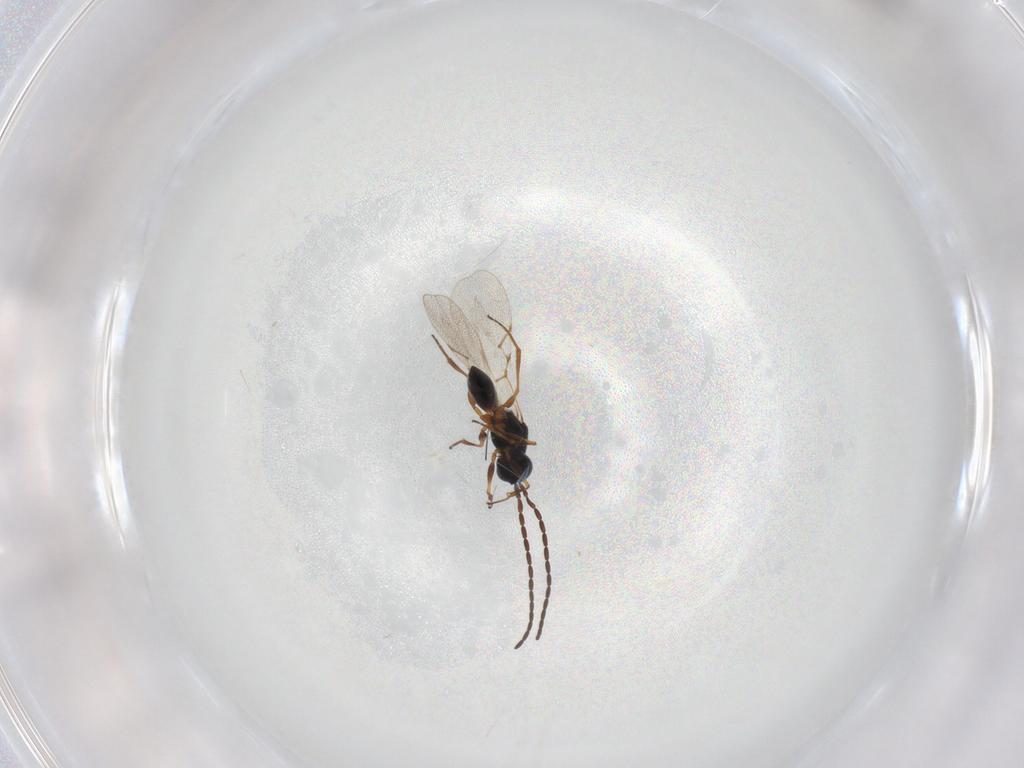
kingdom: Animalia
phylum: Arthropoda
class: Insecta
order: Hymenoptera
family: Figitidae
